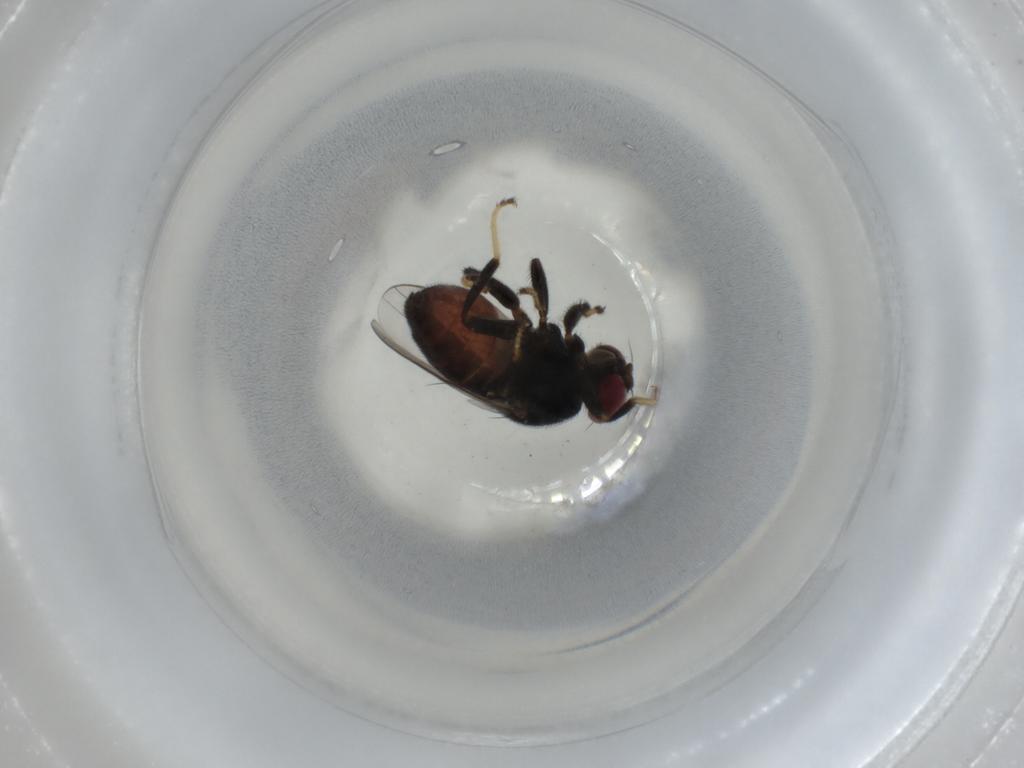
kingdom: Animalia
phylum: Arthropoda
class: Insecta
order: Diptera
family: Chloropidae
